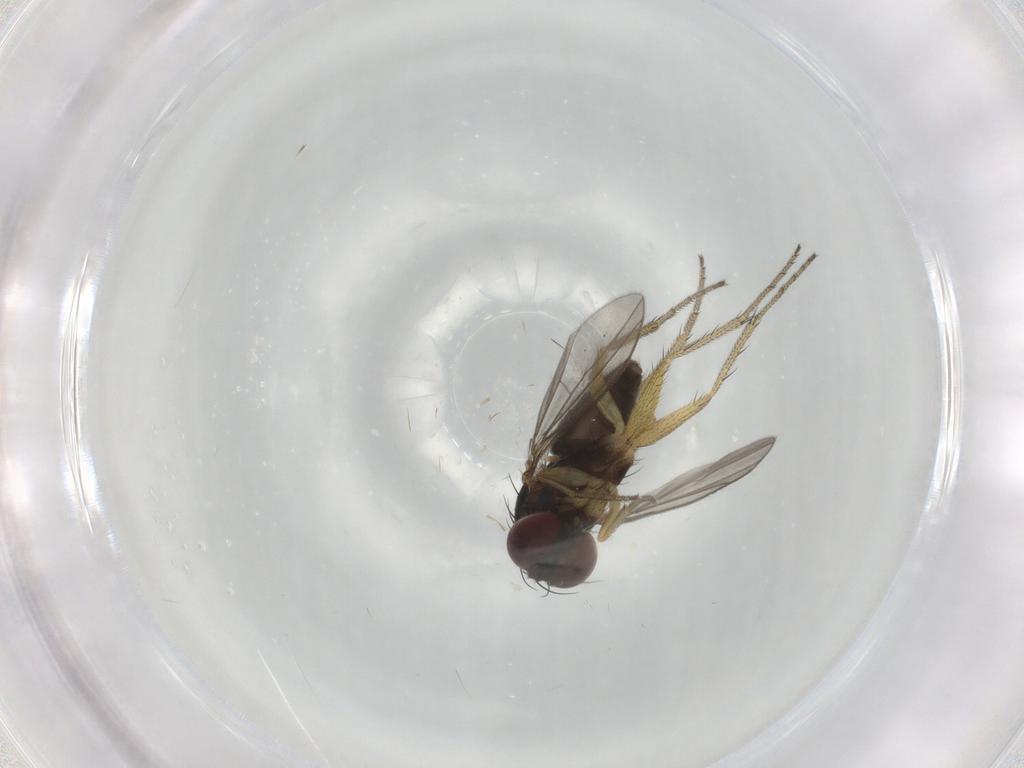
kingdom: Animalia
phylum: Arthropoda
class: Insecta
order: Diptera
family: Dolichopodidae
